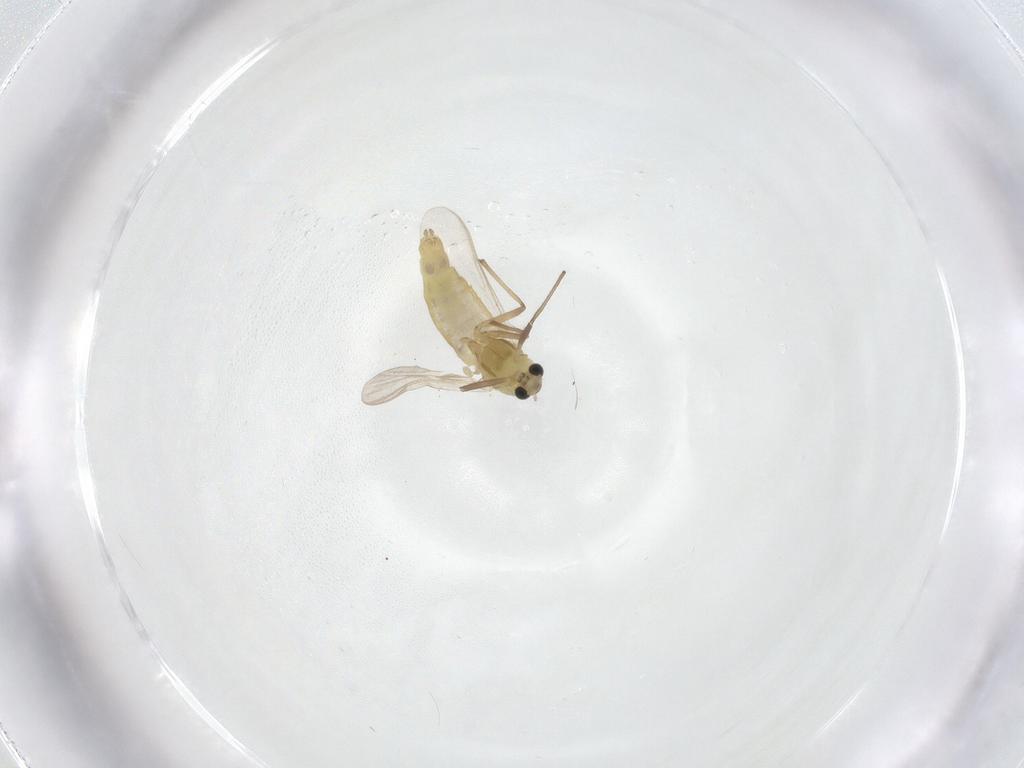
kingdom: Animalia
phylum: Arthropoda
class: Insecta
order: Diptera
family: Chironomidae
